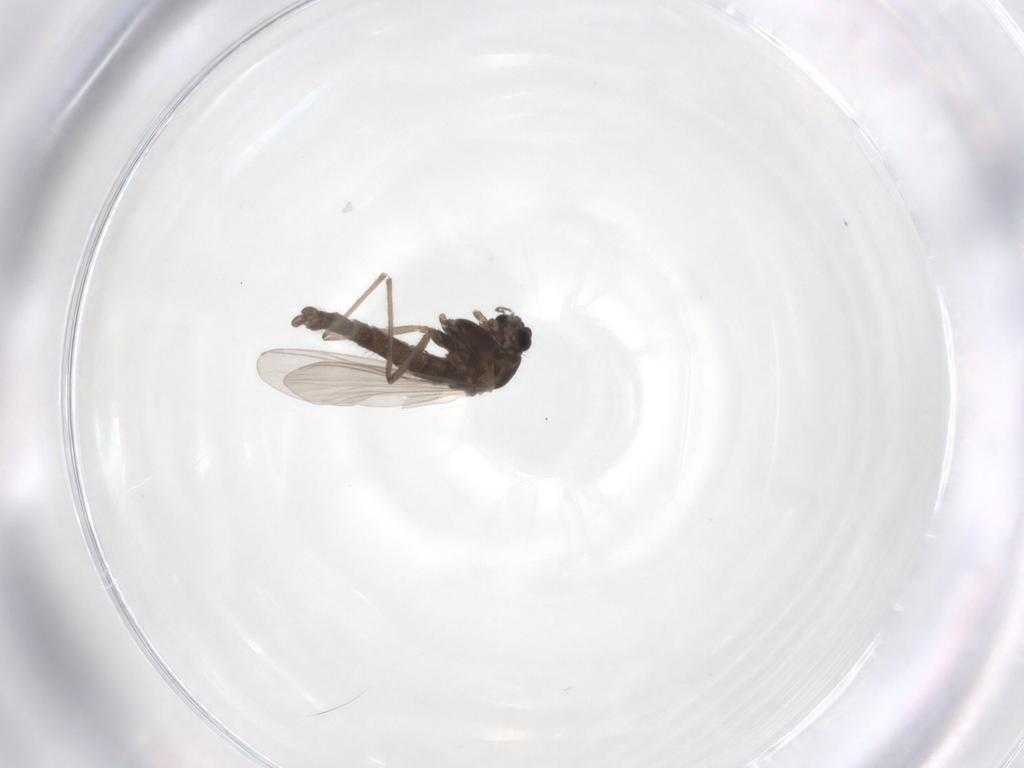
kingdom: Animalia
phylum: Arthropoda
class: Insecta
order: Diptera
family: Chironomidae
